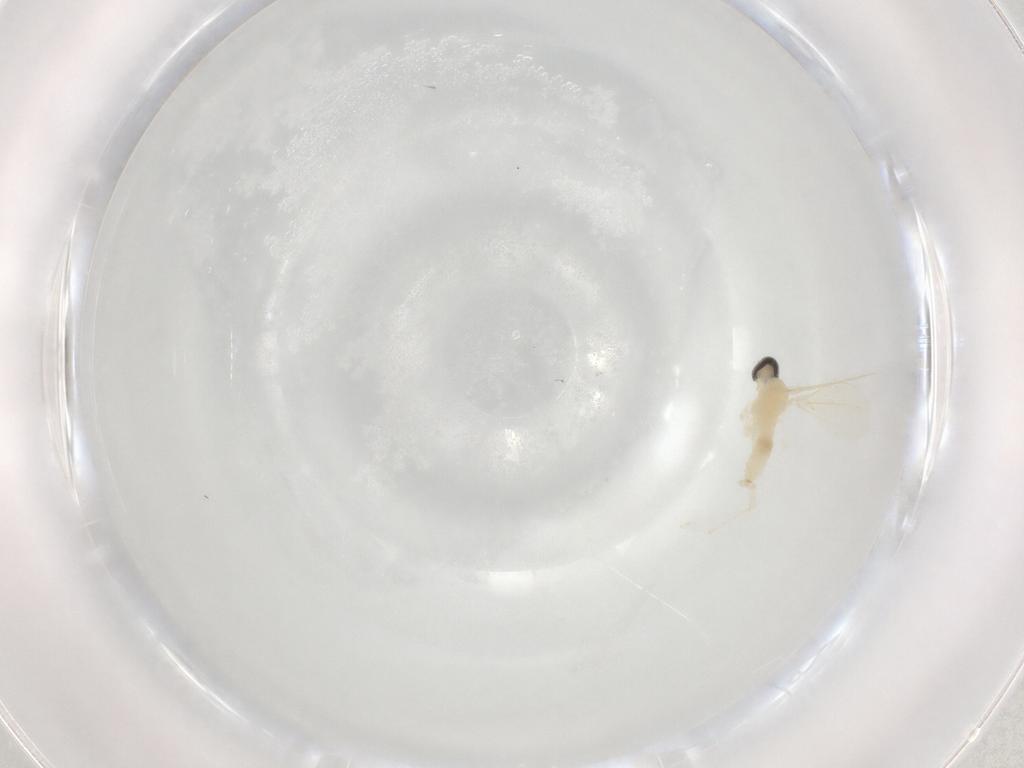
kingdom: Animalia
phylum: Arthropoda
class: Insecta
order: Diptera
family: Cecidomyiidae
